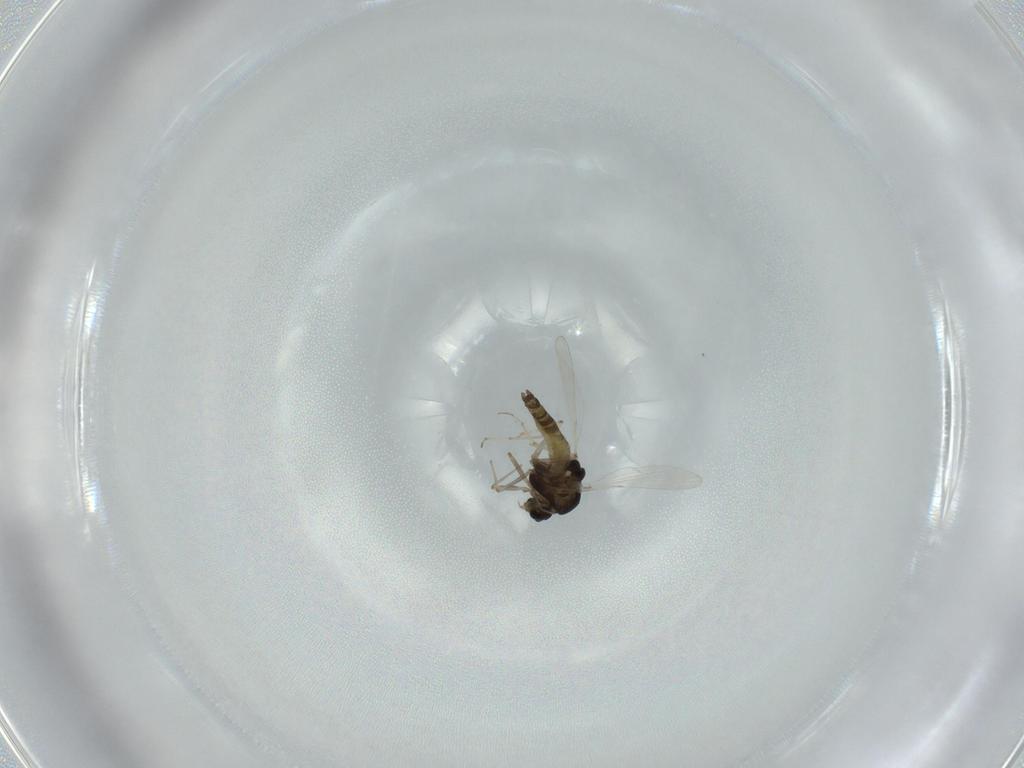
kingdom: Animalia
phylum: Arthropoda
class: Insecta
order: Diptera
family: Chironomidae
